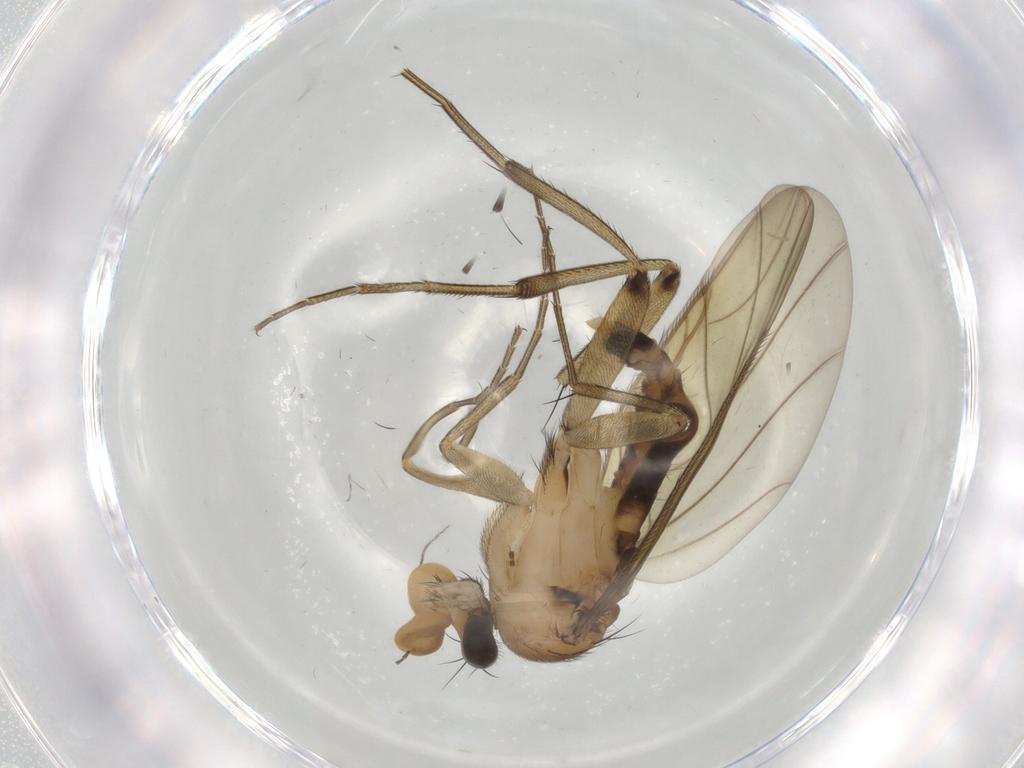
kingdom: Animalia
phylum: Arthropoda
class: Insecta
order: Diptera
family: Phoridae
